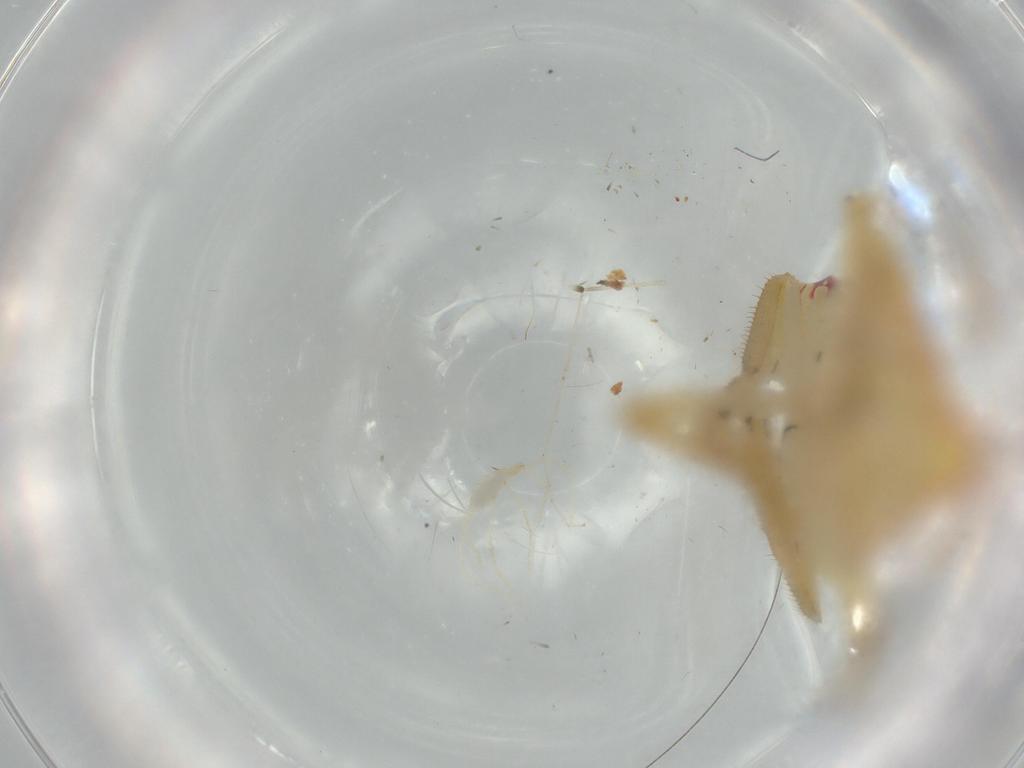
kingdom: Animalia
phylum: Arthropoda
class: Insecta
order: Hemiptera
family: Tropiduchidae
